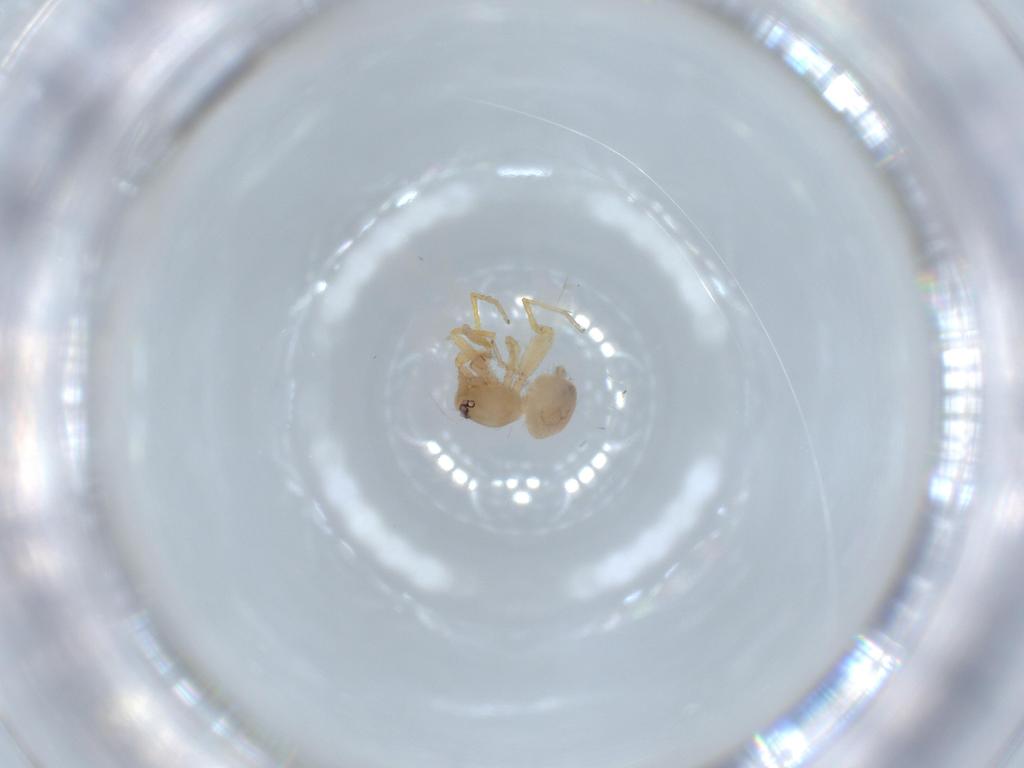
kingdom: Animalia
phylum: Arthropoda
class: Arachnida
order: Araneae
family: Oonopidae
